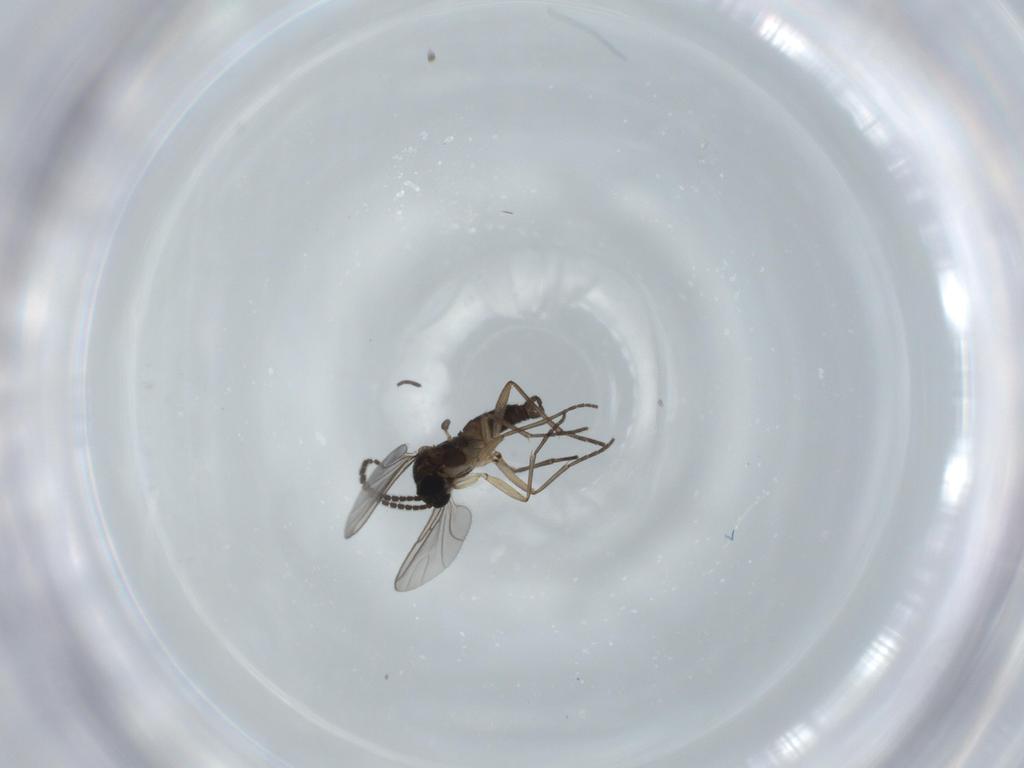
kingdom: Animalia
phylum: Arthropoda
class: Insecta
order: Diptera
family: Sciaridae
